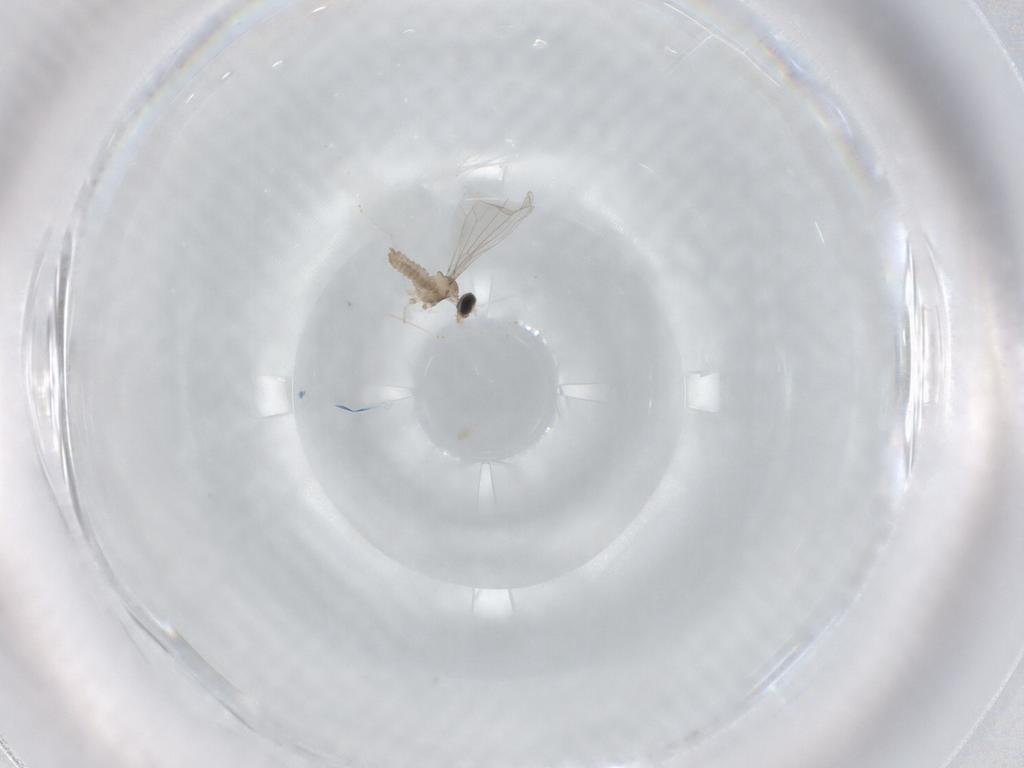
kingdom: Animalia
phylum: Arthropoda
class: Insecta
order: Diptera
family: Cecidomyiidae
